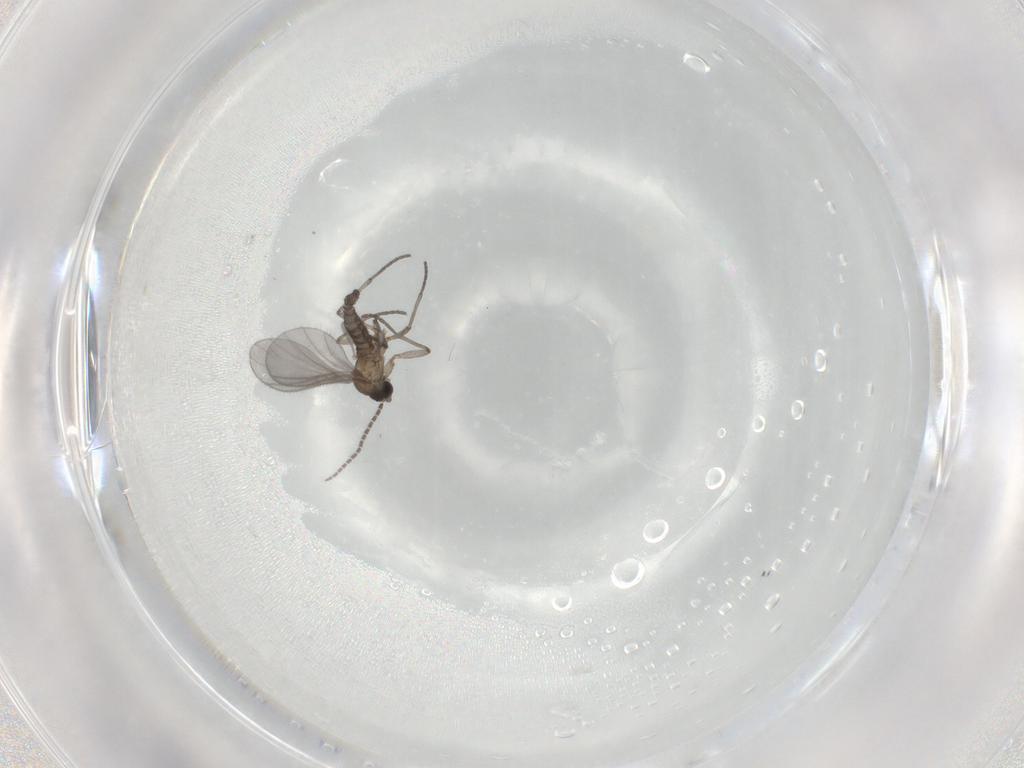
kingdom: Animalia
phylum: Arthropoda
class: Insecta
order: Diptera
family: Sciaridae
